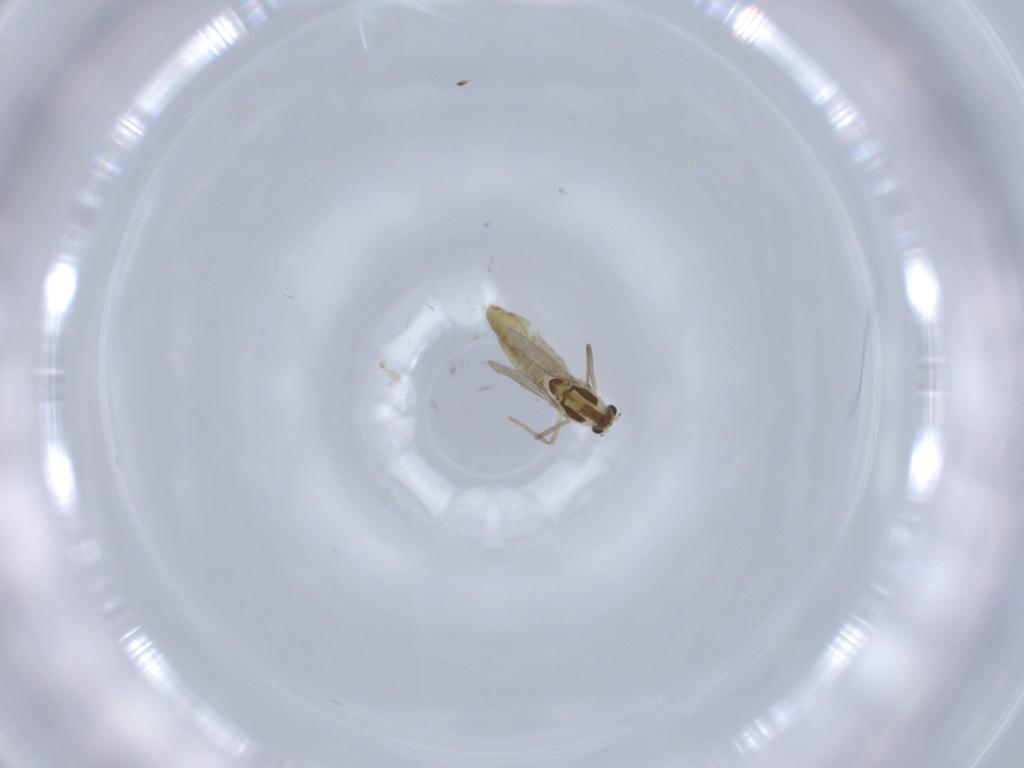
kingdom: Animalia
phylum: Arthropoda
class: Insecta
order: Diptera
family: Chironomidae
